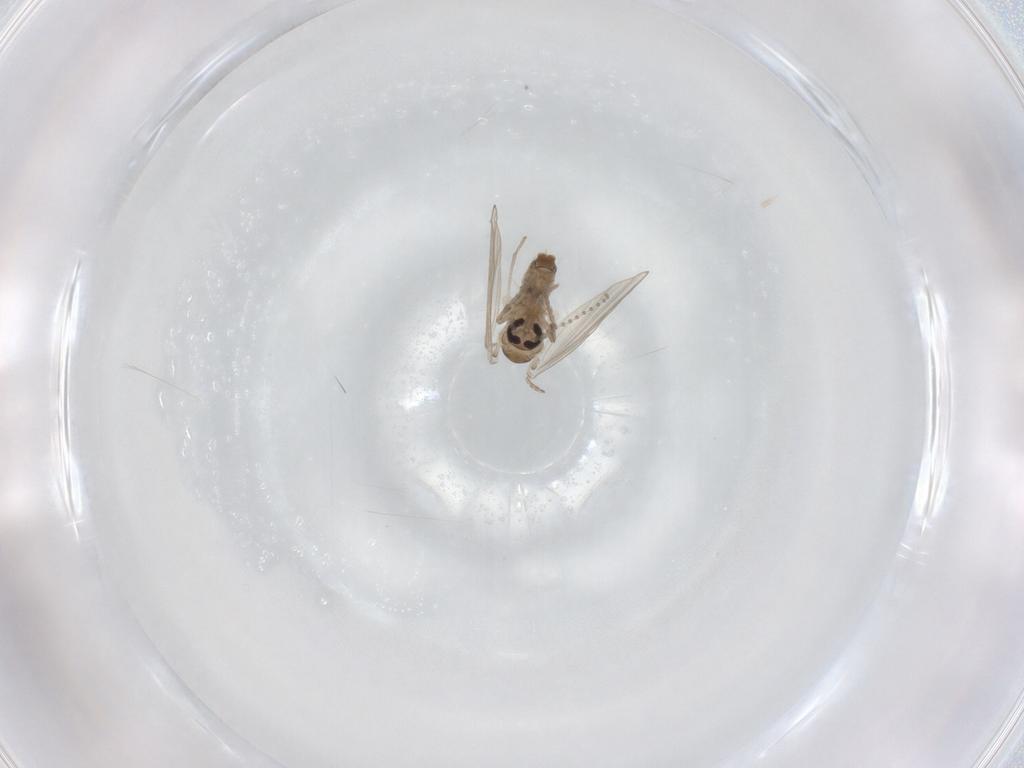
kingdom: Animalia
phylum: Arthropoda
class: Insecta
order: Diptera
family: Psychodidae
